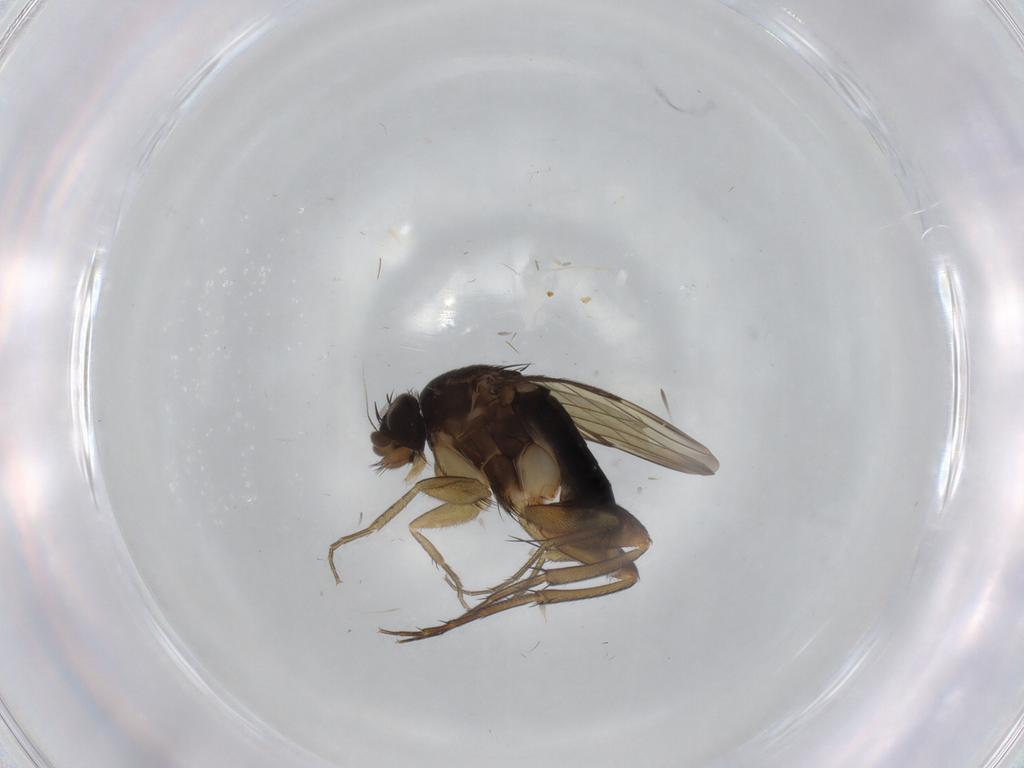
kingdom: Animalia
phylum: Arthropoda
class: Insecta
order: Diptera
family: Phoridae
